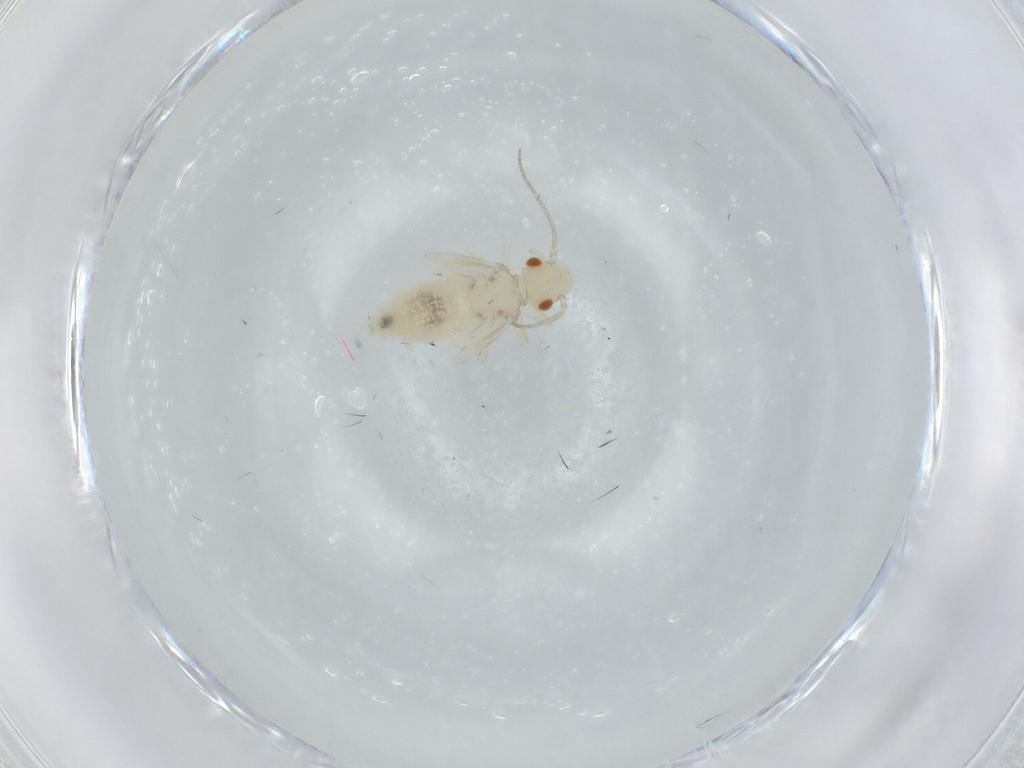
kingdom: Animalia
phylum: Arthropoda
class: Insecta
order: Psocodea
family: Caeciliusidae
